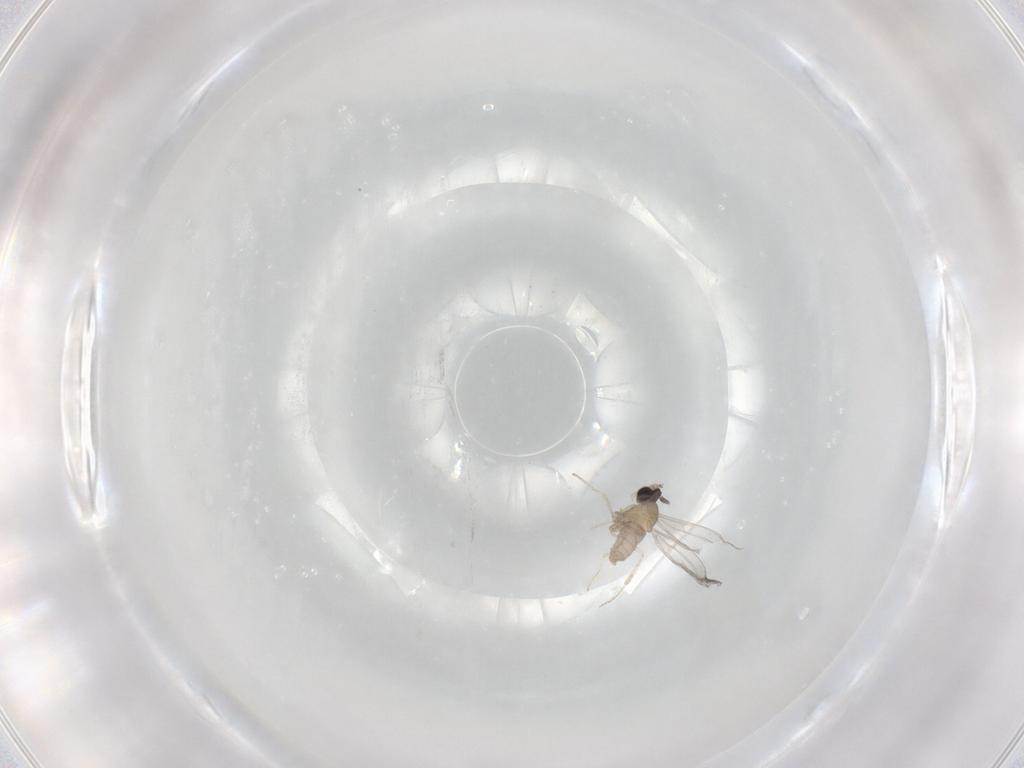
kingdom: Animalia
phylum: Arthropoda
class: Insecta
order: Diptera
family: Cecidomyiidae
